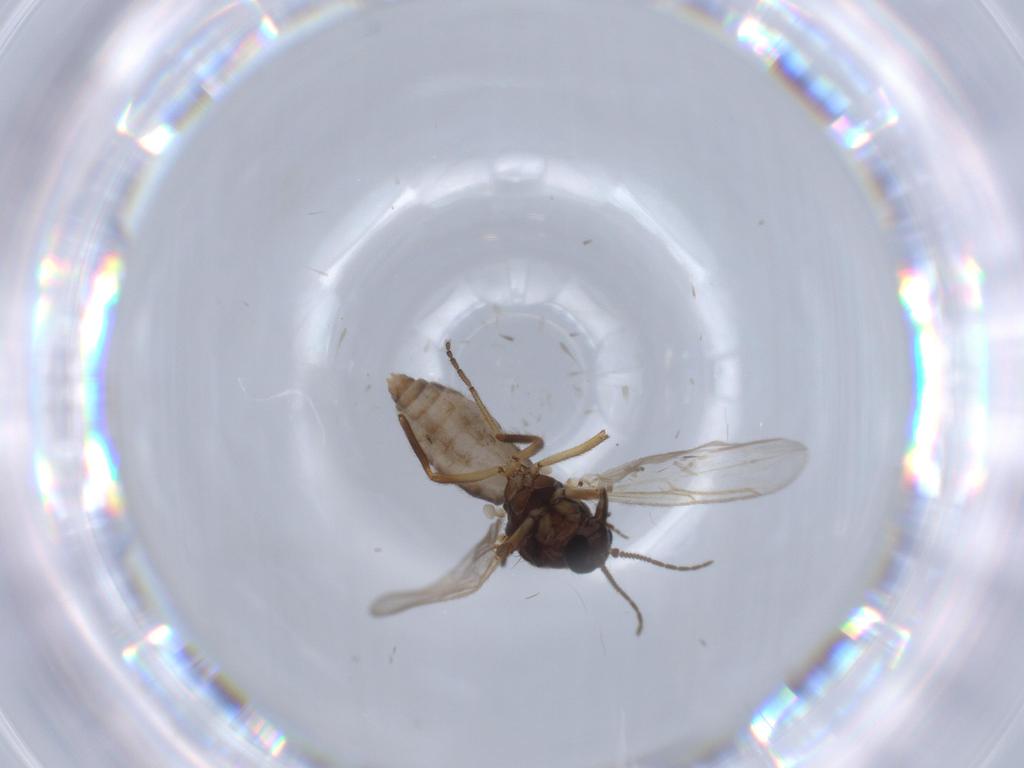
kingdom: Animalia
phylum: Arthropoda
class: Insecta
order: Diptera
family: Ceratopogonidae
